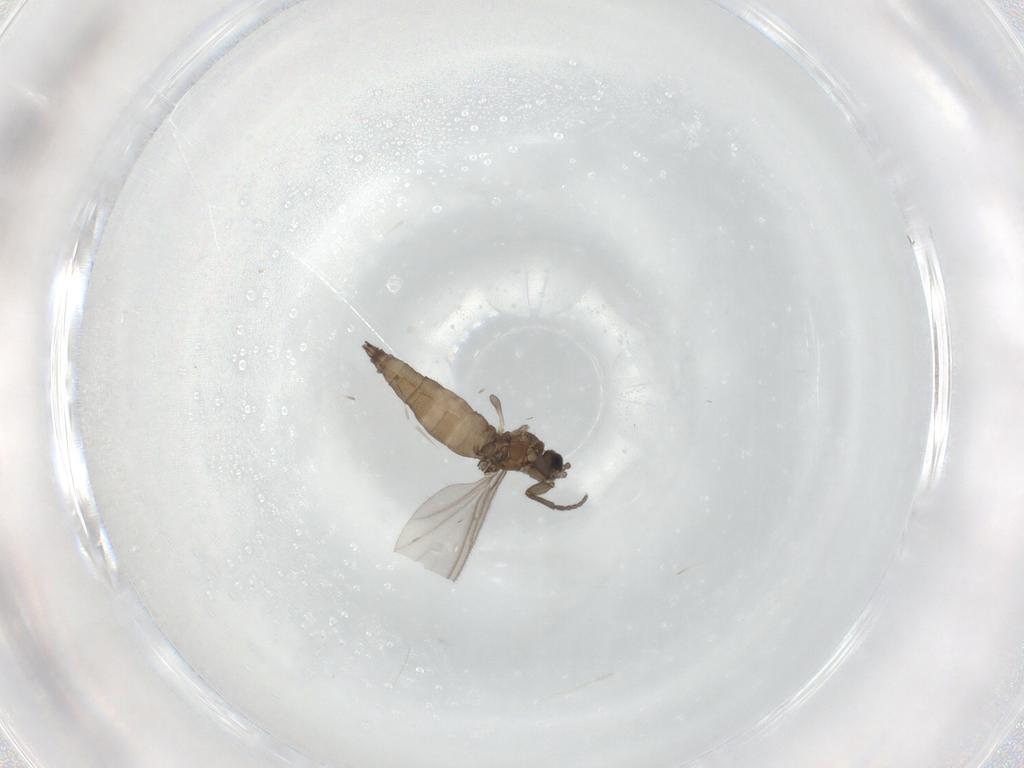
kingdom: Animalia
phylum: Arthropoda
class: Insecta
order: Diptera
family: Sciaridae
